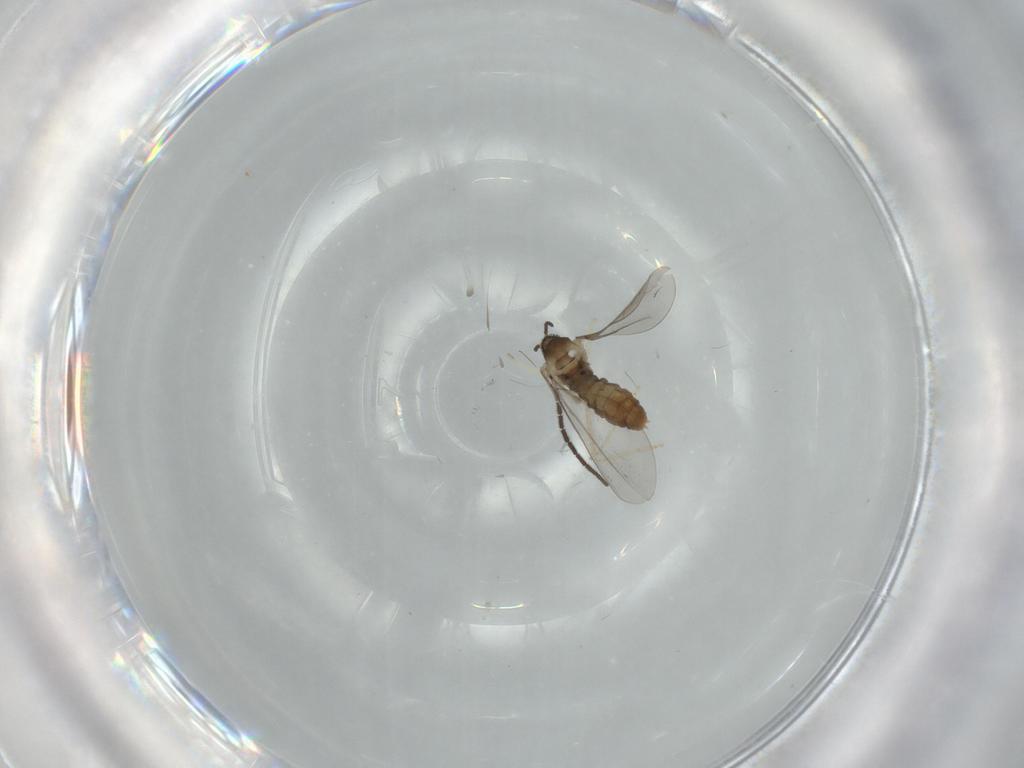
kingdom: Animalia
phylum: Arthropoda
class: Insecta
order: Diptera
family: Sciaridae
